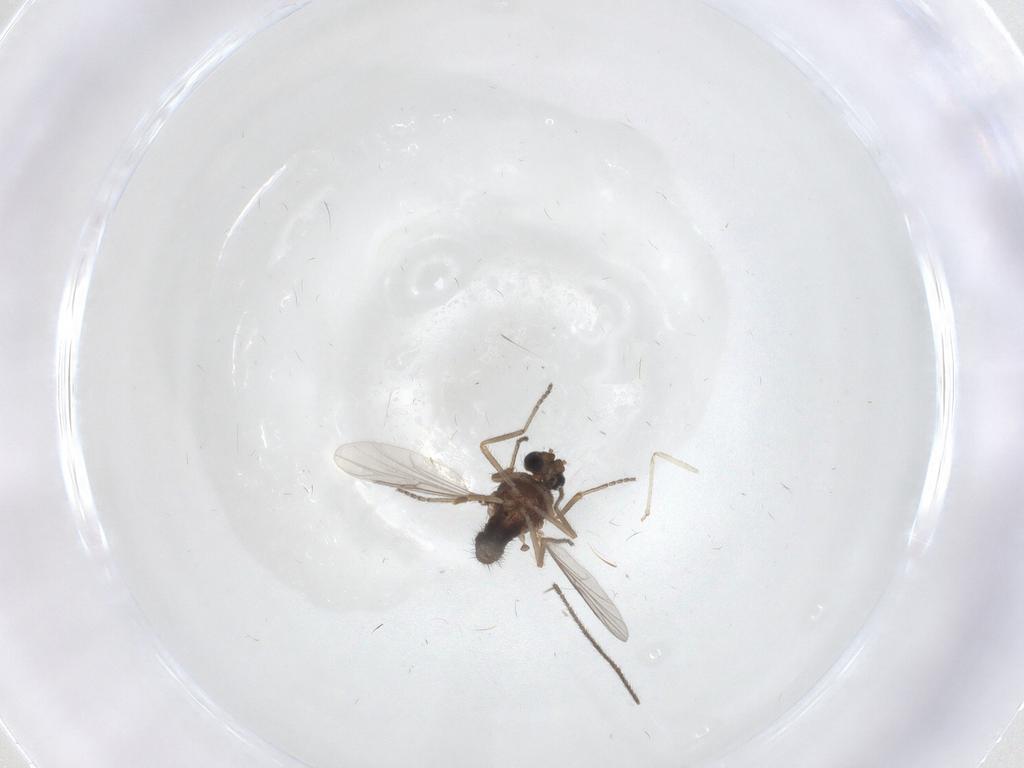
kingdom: Animalia
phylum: Arthropoda
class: Insecta
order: Diptera
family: Ceratopogonidae
